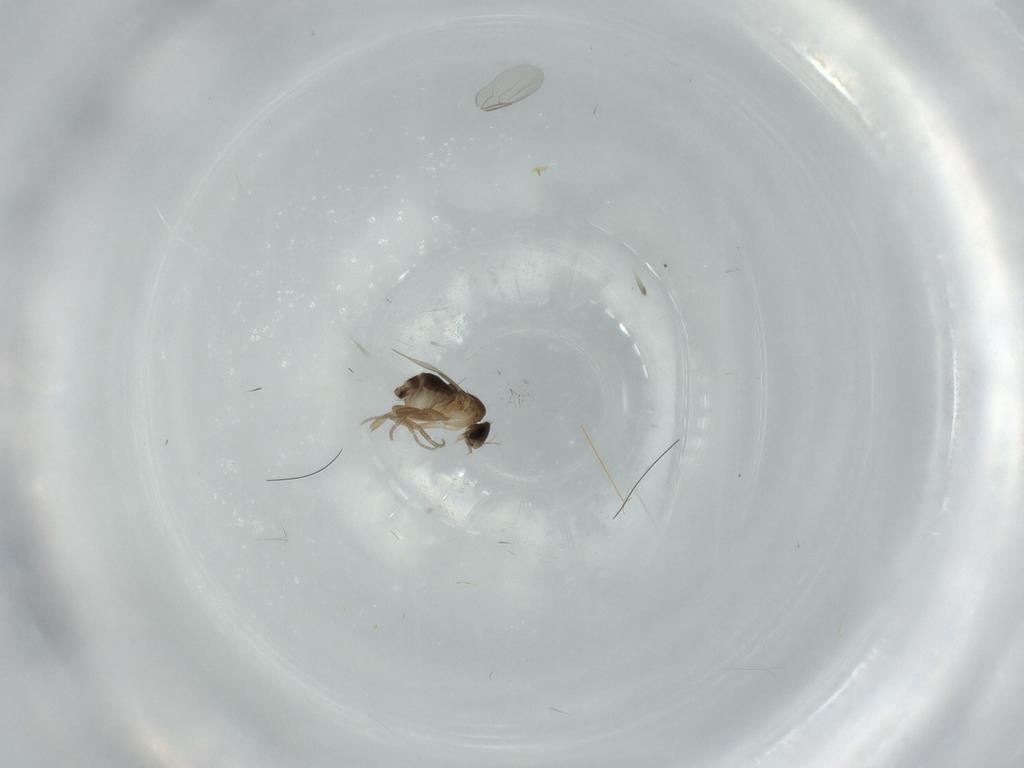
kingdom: Animalia
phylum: Arthropoda
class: Insecta
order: Diptera
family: Phoridae
